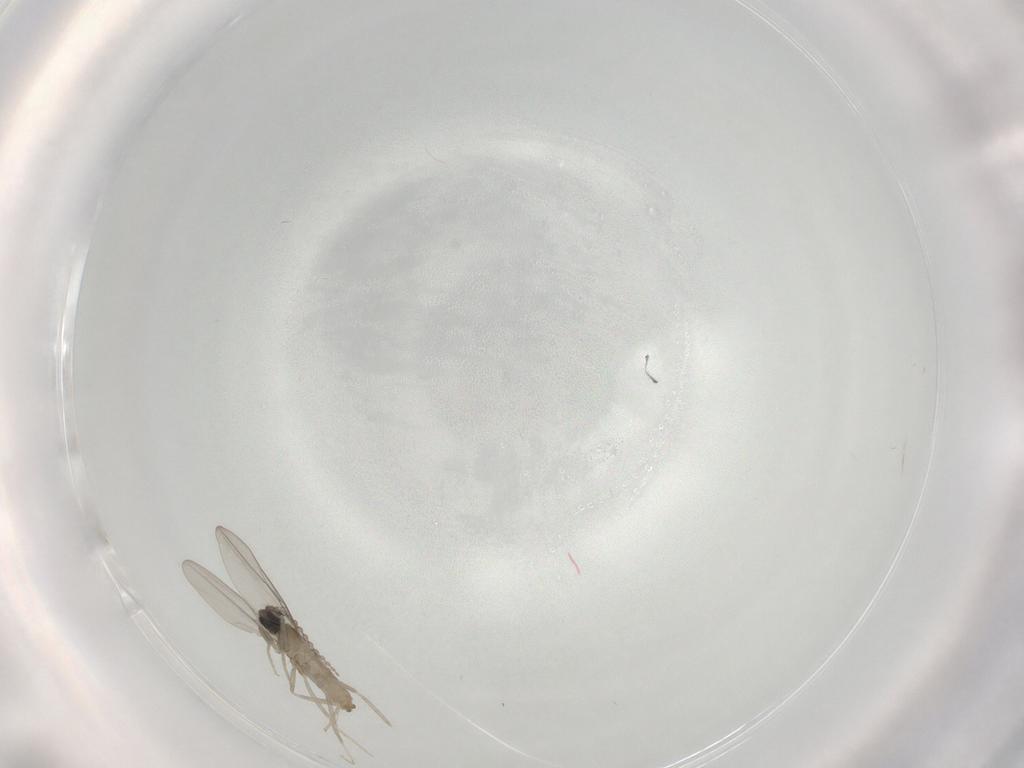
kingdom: Animalia
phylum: Arthropoda
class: Insecta
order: Diptera
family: Cecidomyiidae
